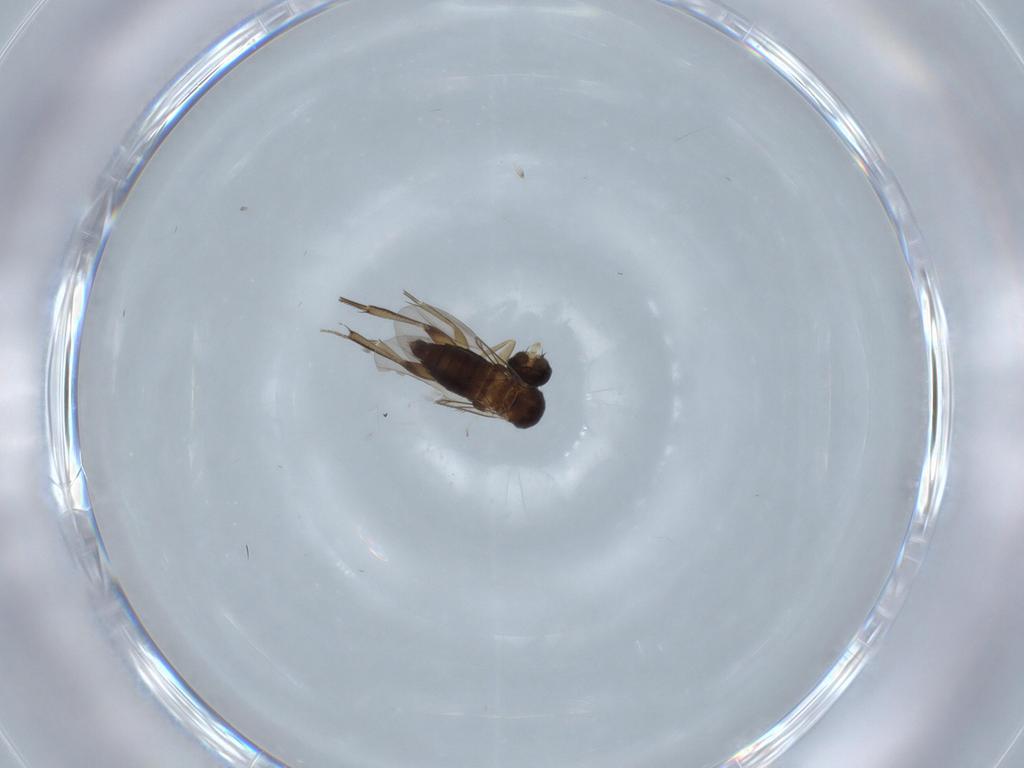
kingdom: Animalia
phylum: Arthropoda
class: Insecta
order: Diptera
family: Phoridae
